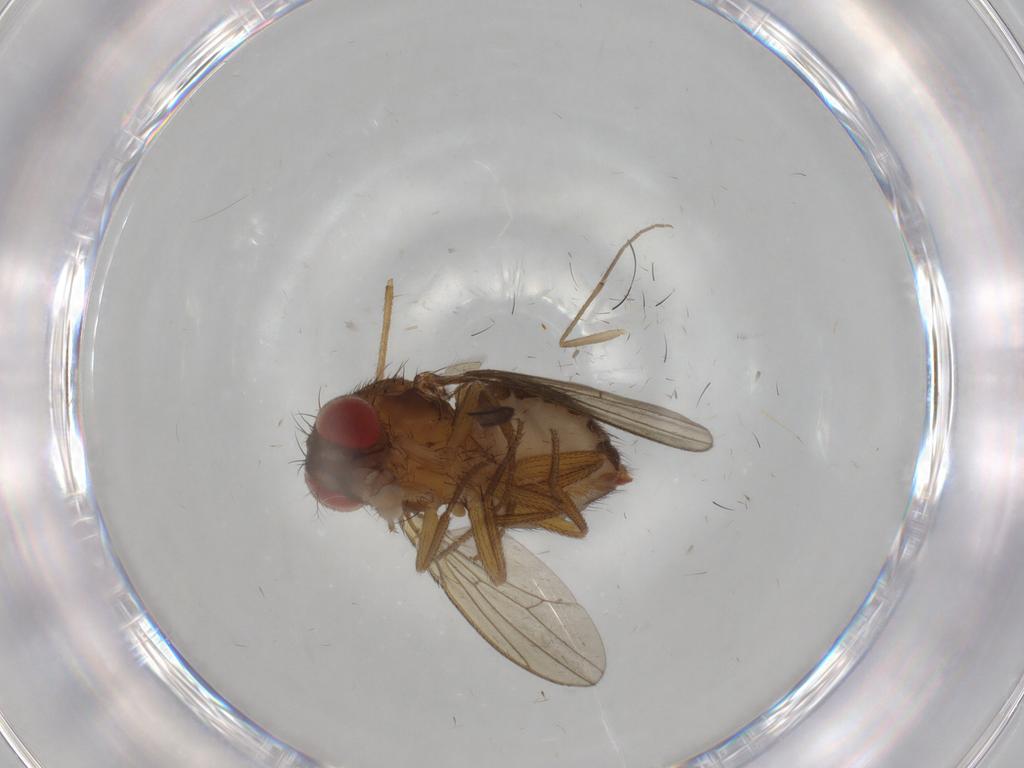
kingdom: Animalia
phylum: Arthropoda
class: Insecta
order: Diptera
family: Drosophilidae
